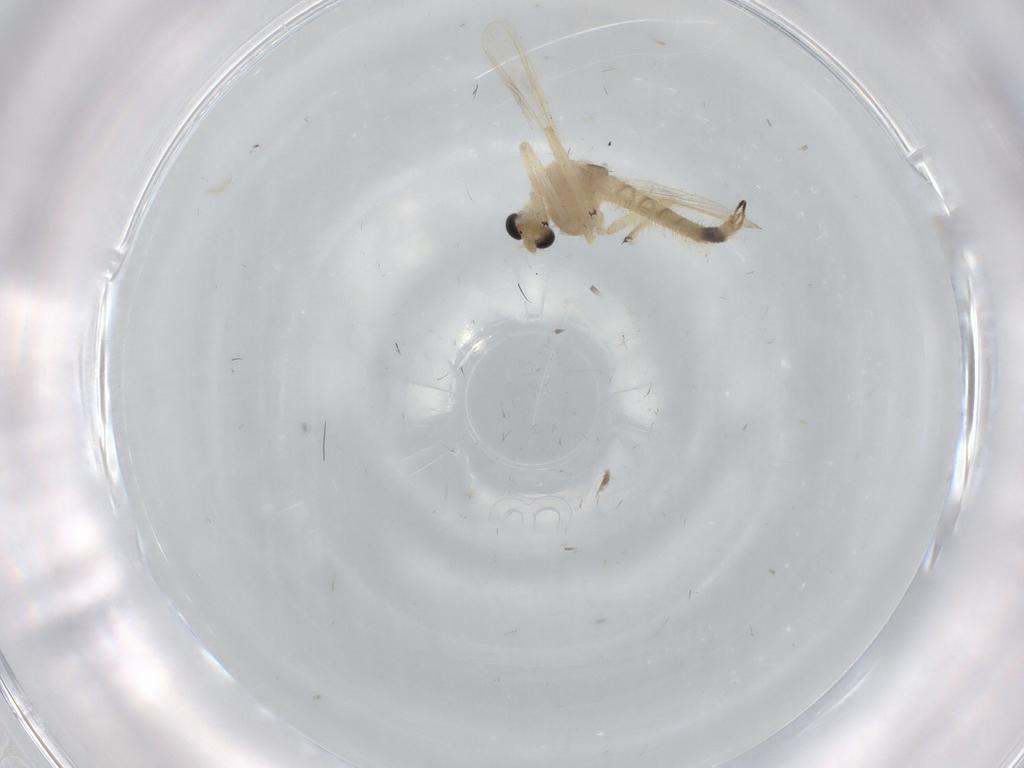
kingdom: Animalia
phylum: Arthropoda
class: Insecta
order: Diptera
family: Chironomidae
